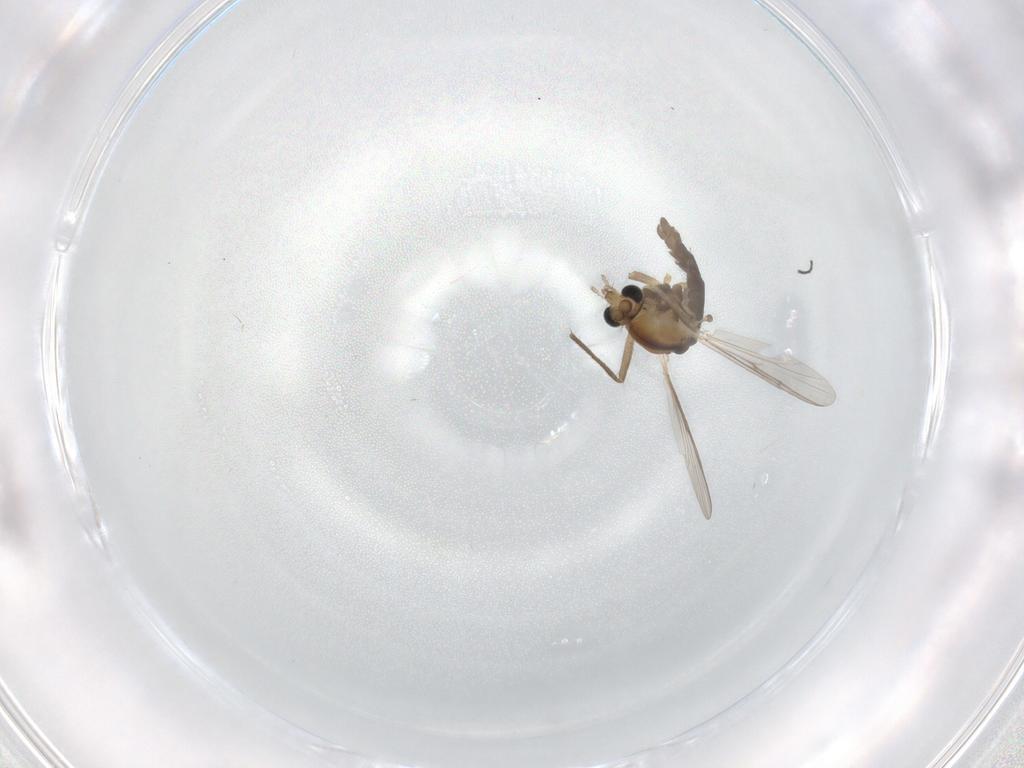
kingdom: Animalia
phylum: Arthropoda
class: Insecta
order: Diptera
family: Chironomidae
